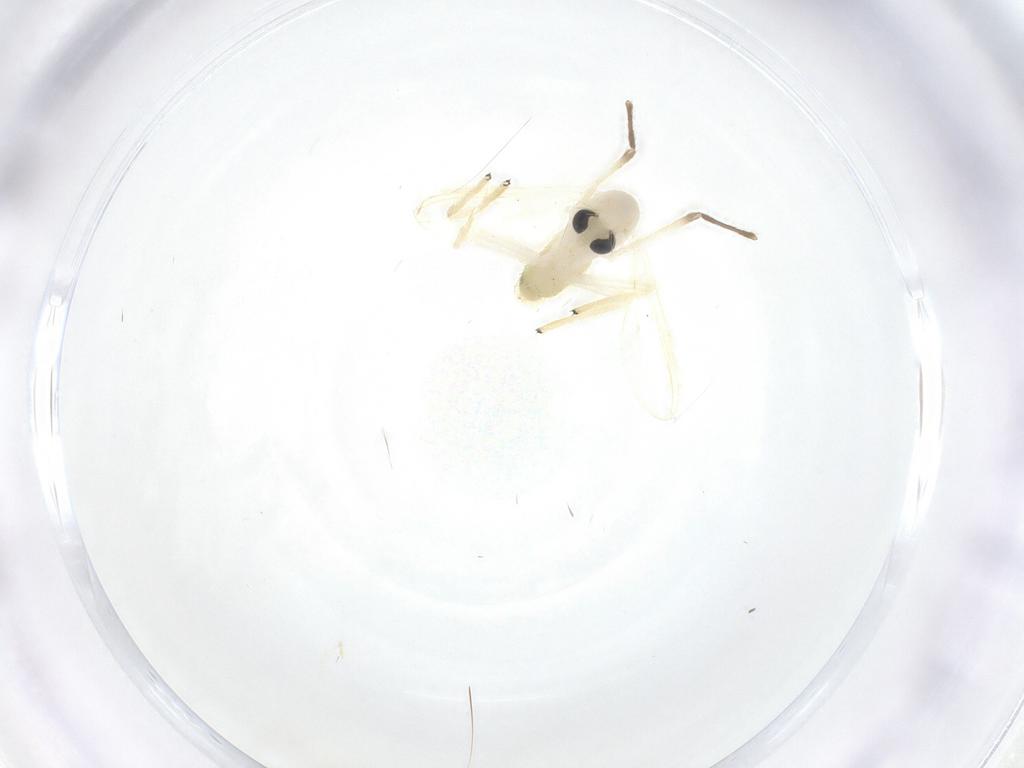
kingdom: Animalia
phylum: Arthropoda
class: Insecta
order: Diptera
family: Chironomidae
